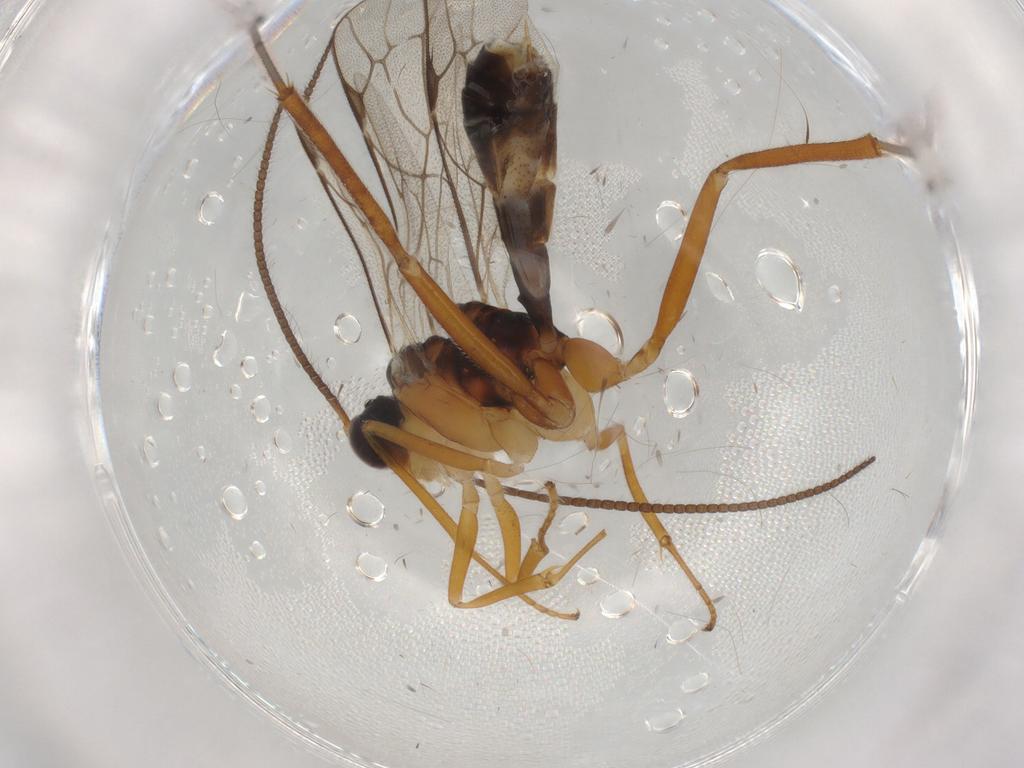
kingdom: Animalia
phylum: Arthropoda
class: Insecta
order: Hymenoptera
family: Ichneumonidae
